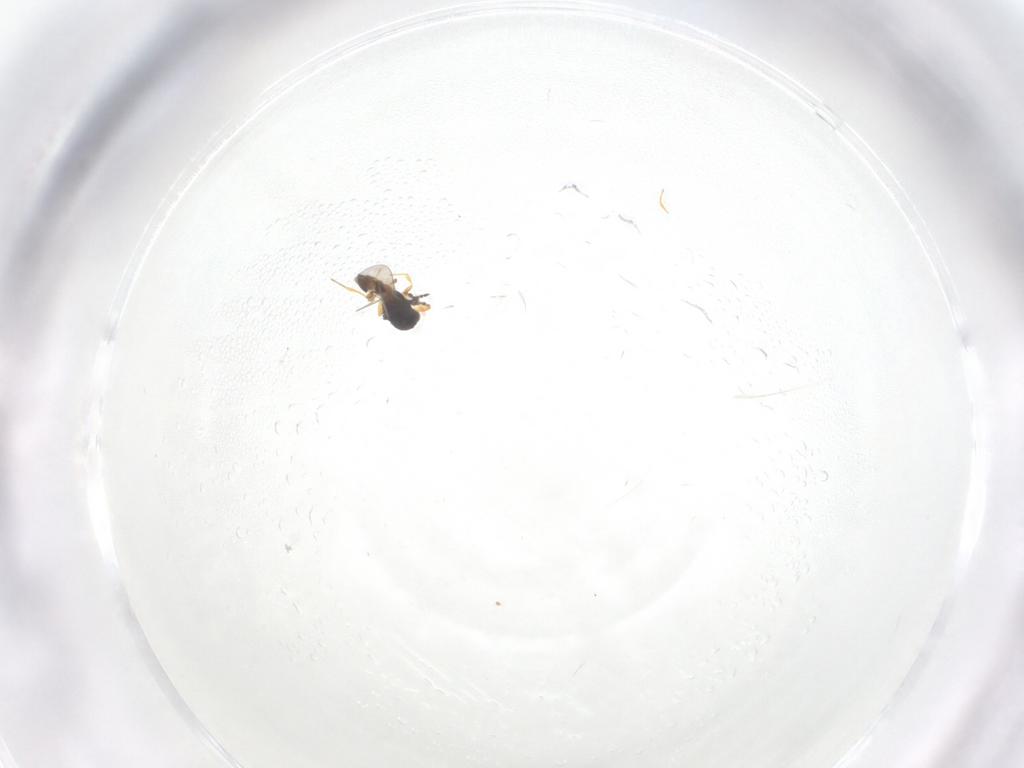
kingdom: Animalia
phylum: Arthropoda
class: Insecta
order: Hymenoptera
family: Platygastridae
